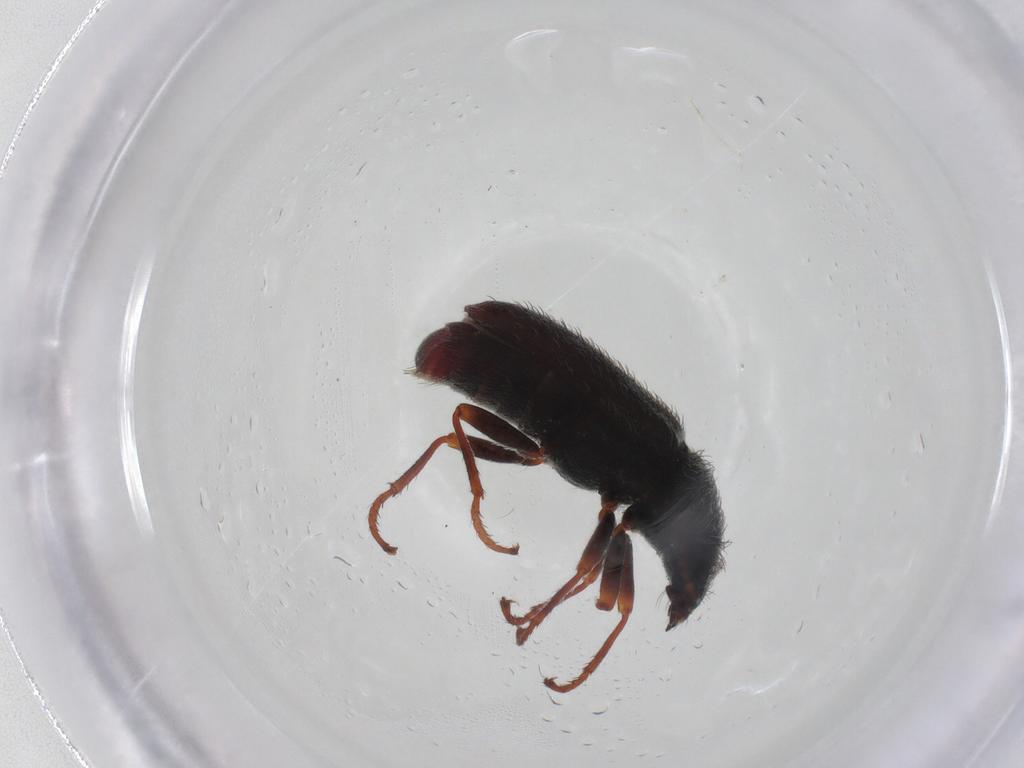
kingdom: Animalia
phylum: Arthropoda
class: Insecta
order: Coleoptera
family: Melyridae
